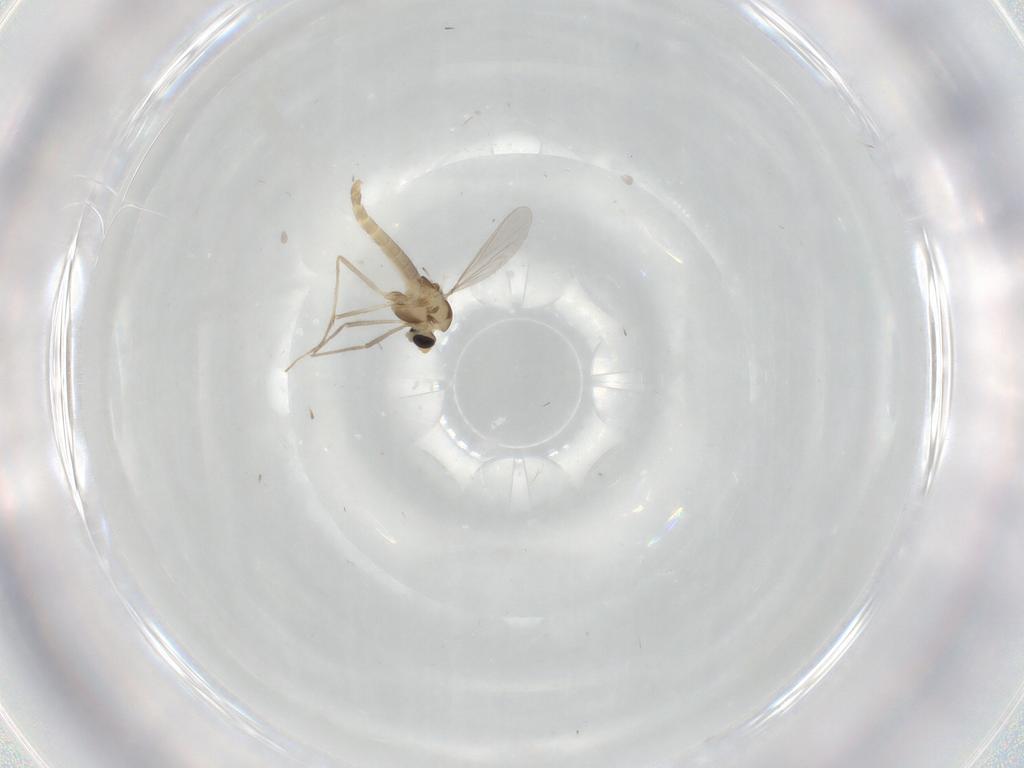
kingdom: Animalia
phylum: Arthropoda
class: Insecta
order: Diptera
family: Chironomidae
